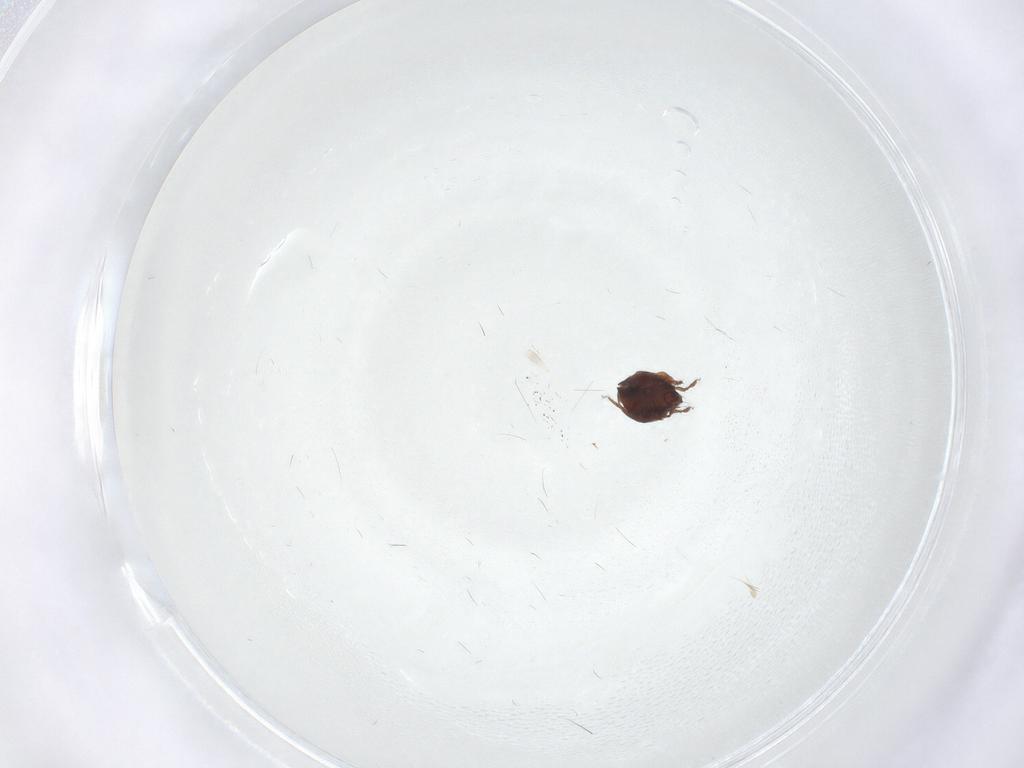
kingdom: Animalia
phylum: Arthropoda
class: Arachnida
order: Sarcoptiformes
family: Ceratozetidae
